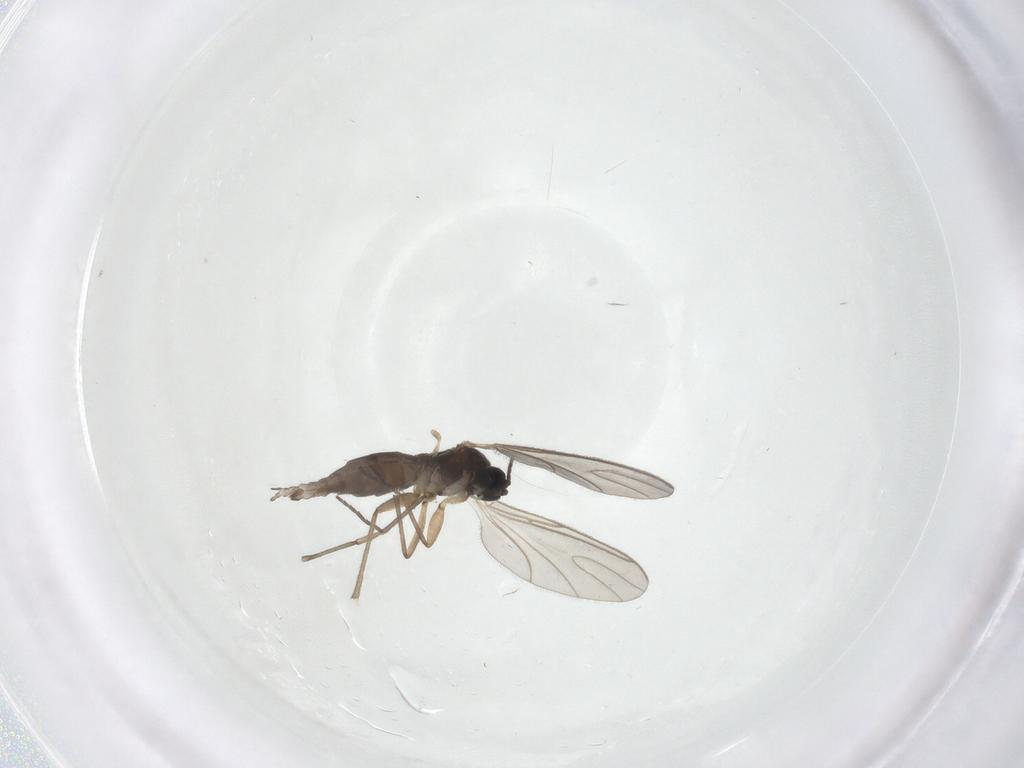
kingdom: Animalia
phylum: Arthropoda
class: Insecta
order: Diptera
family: Sciaridae
